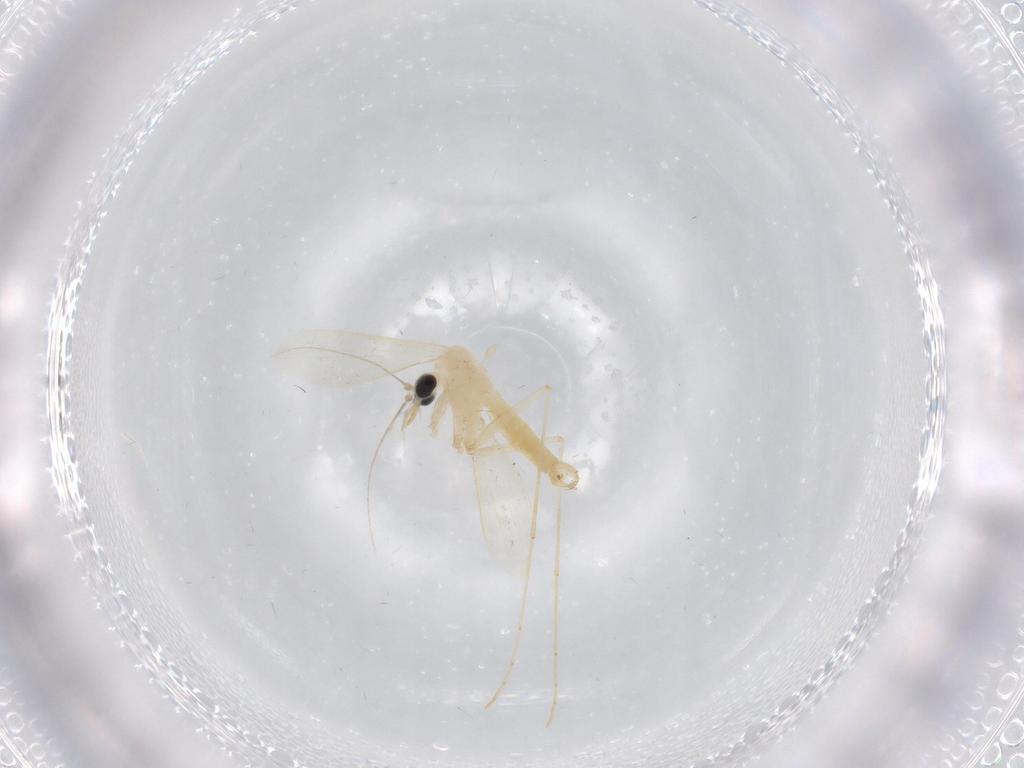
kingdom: Animalia
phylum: Arthropoda
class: Insecta
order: Diptera
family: Psychodidae
